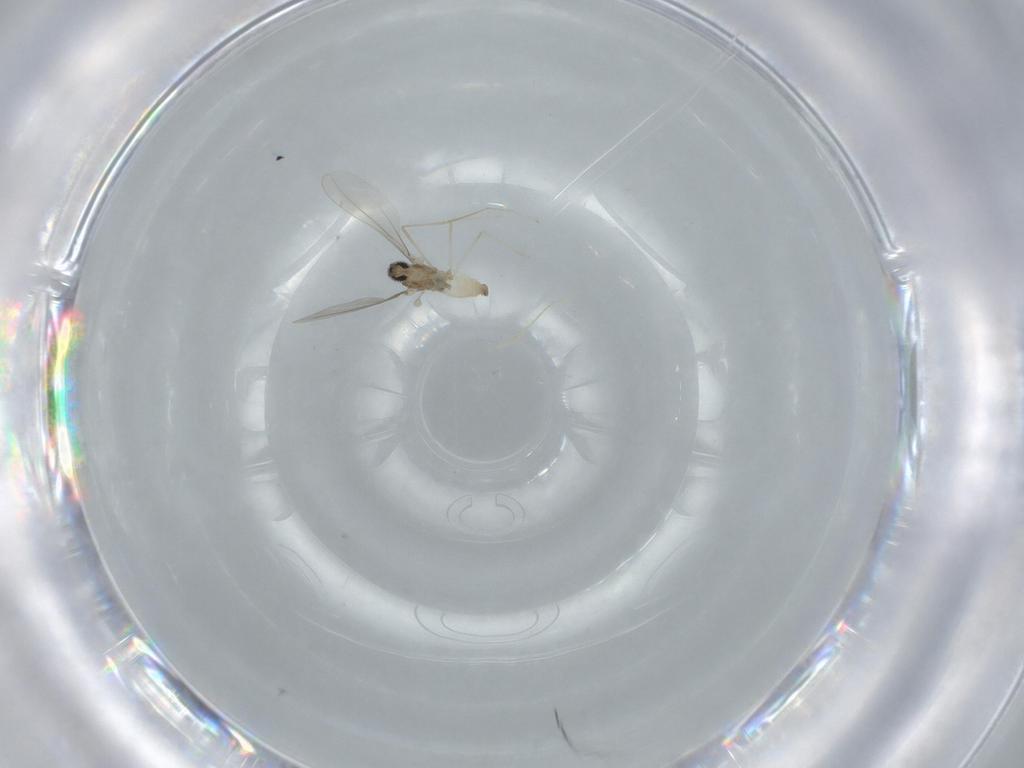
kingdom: Animalia
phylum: Arthropoda
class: Insecta
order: Diptera
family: Cecidomyiidae
